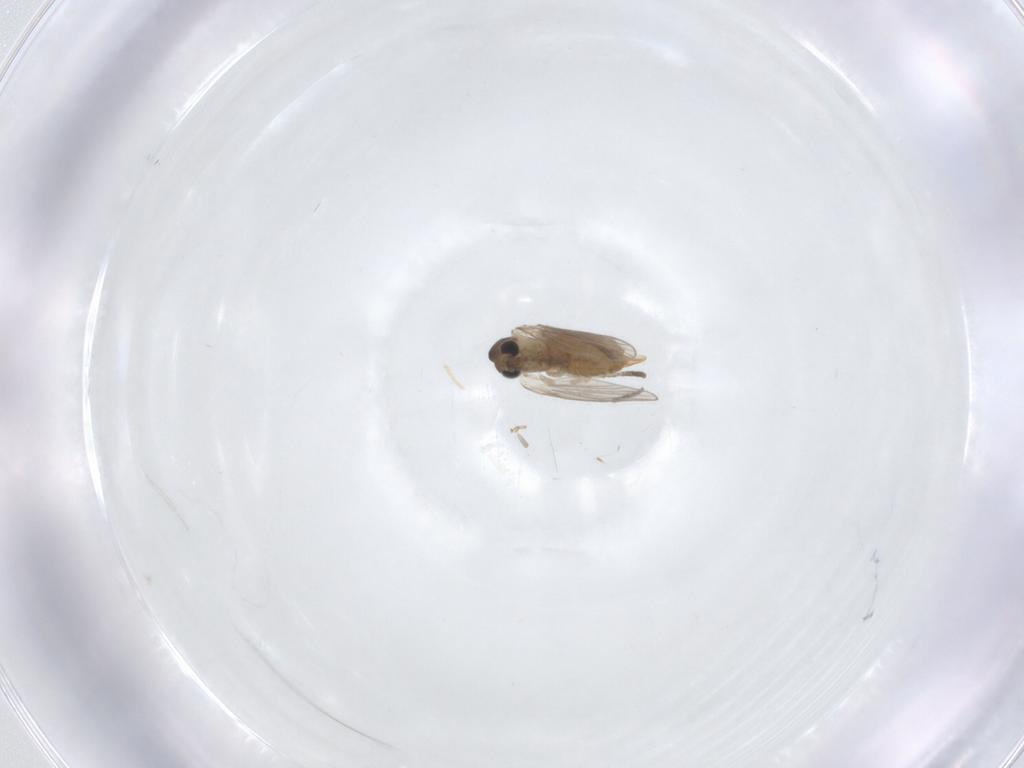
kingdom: Animalia
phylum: Arthropoda
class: Insecta
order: Diptera
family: Psychodidae
